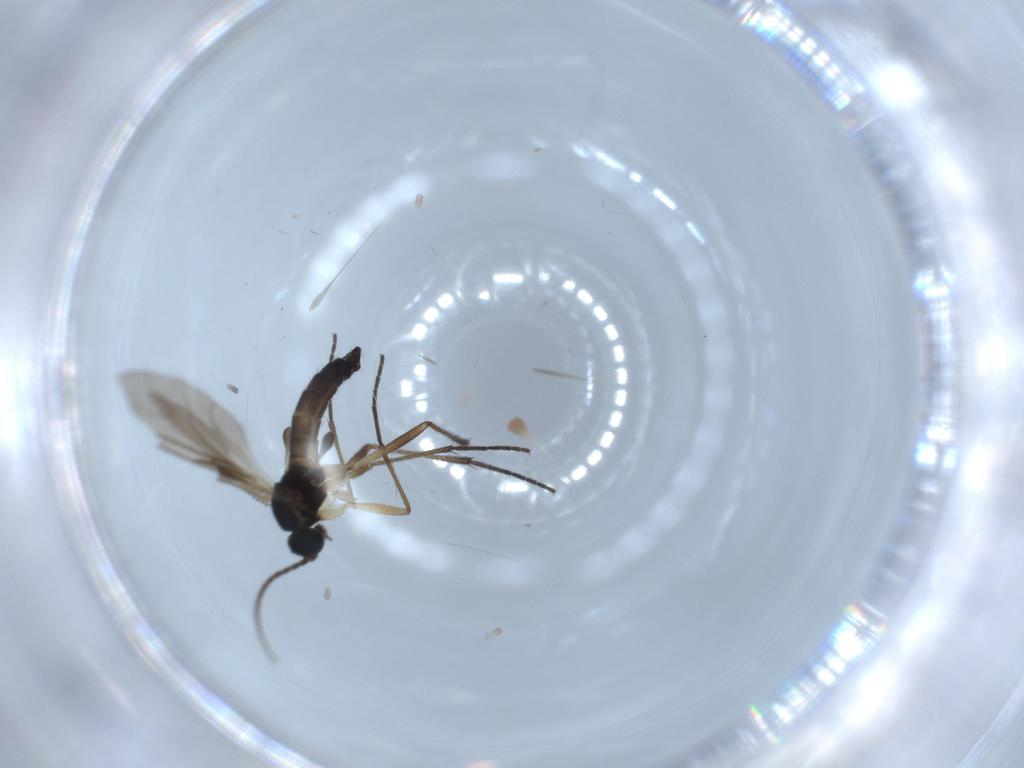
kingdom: Animalia
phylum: Arthropoda
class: Insecta
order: Diptera
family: Sciaridae
